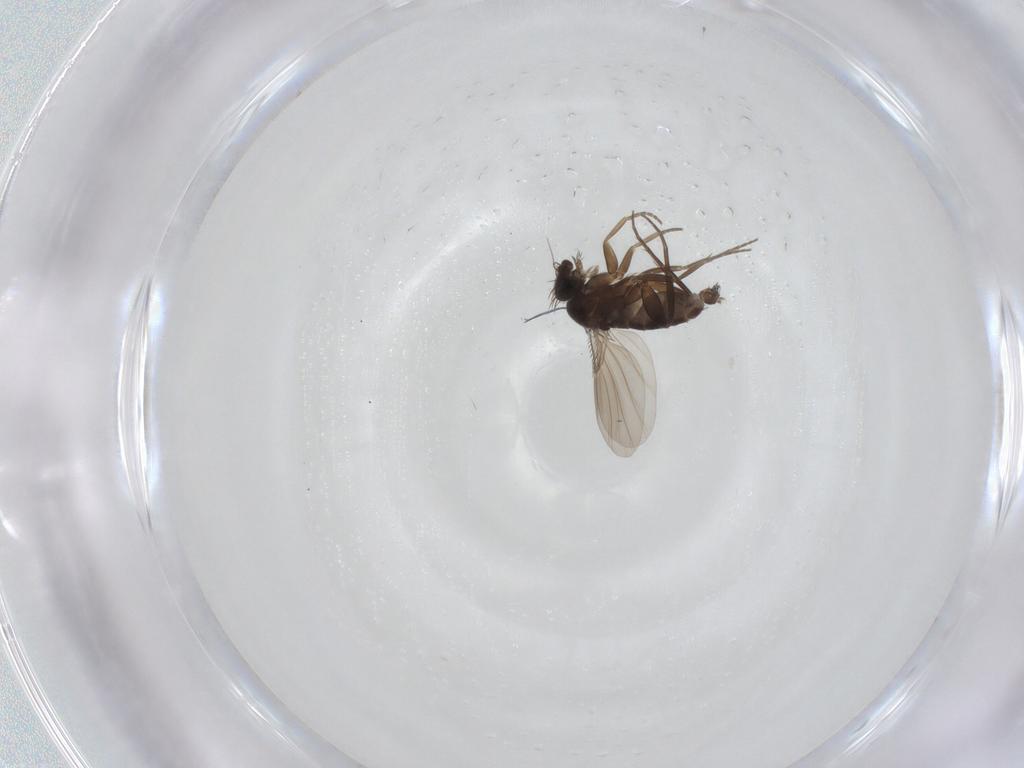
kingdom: Animalia
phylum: Arthropoda
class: Insecta
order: Diptera
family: Phoridae
